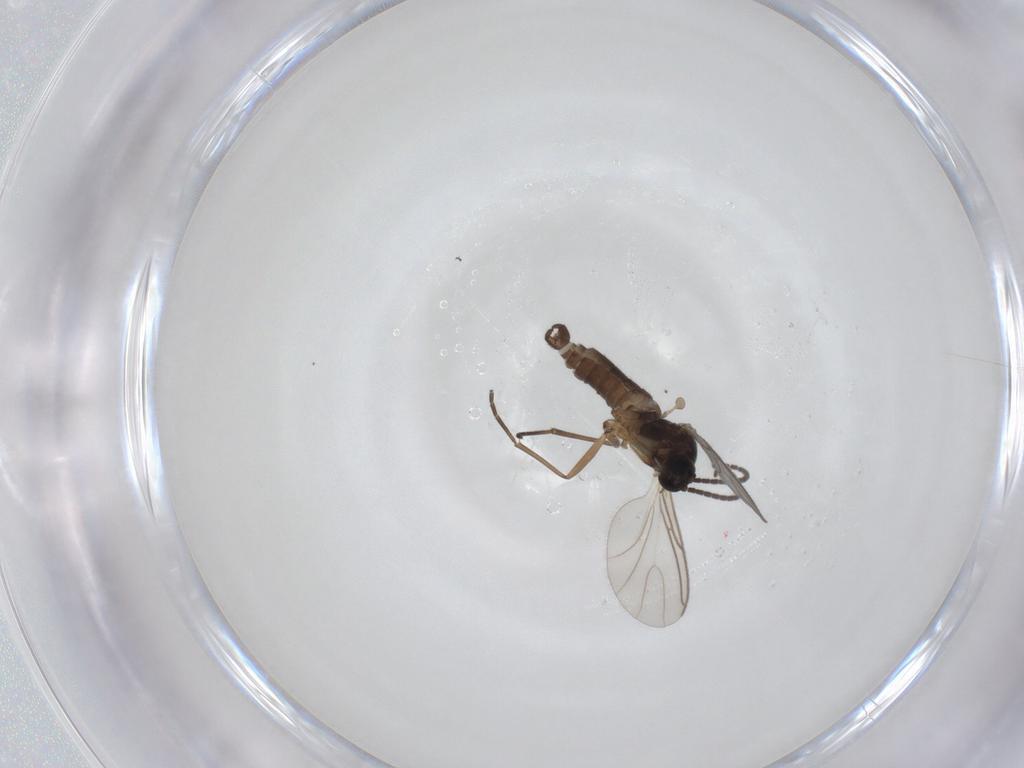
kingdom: Animalia
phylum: Arthropoda
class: Insecta
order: Diptera
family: Sciaridae
